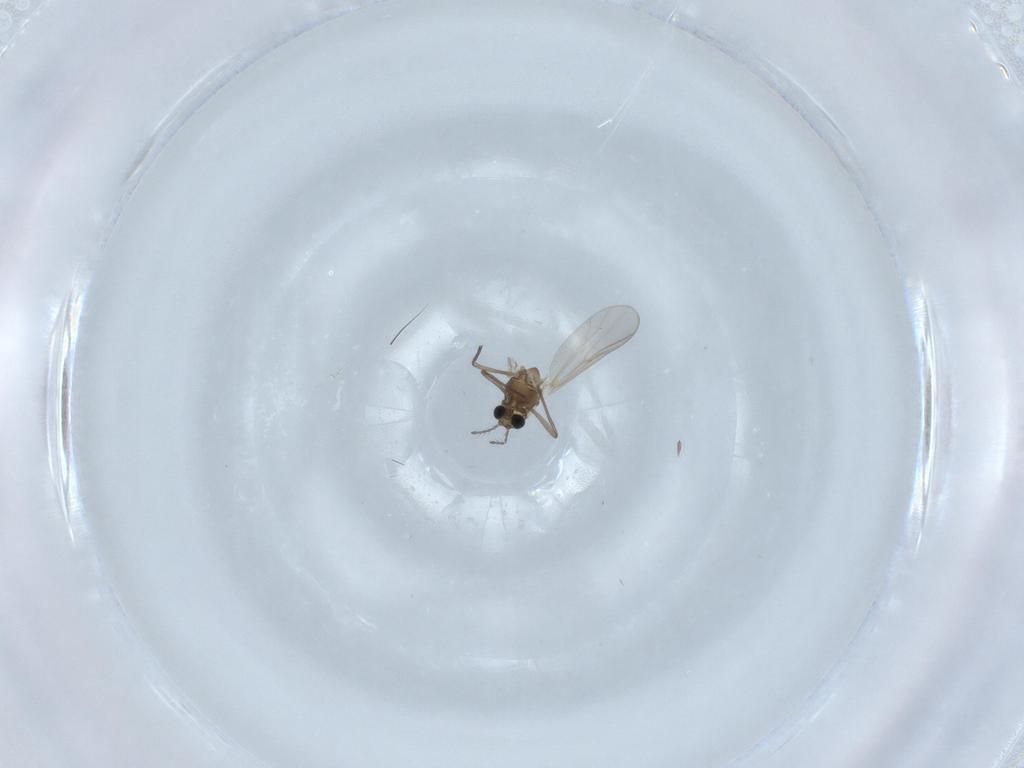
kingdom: Animalia
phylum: Arthropoda
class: Insecta
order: Diptera
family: Chironomidae
